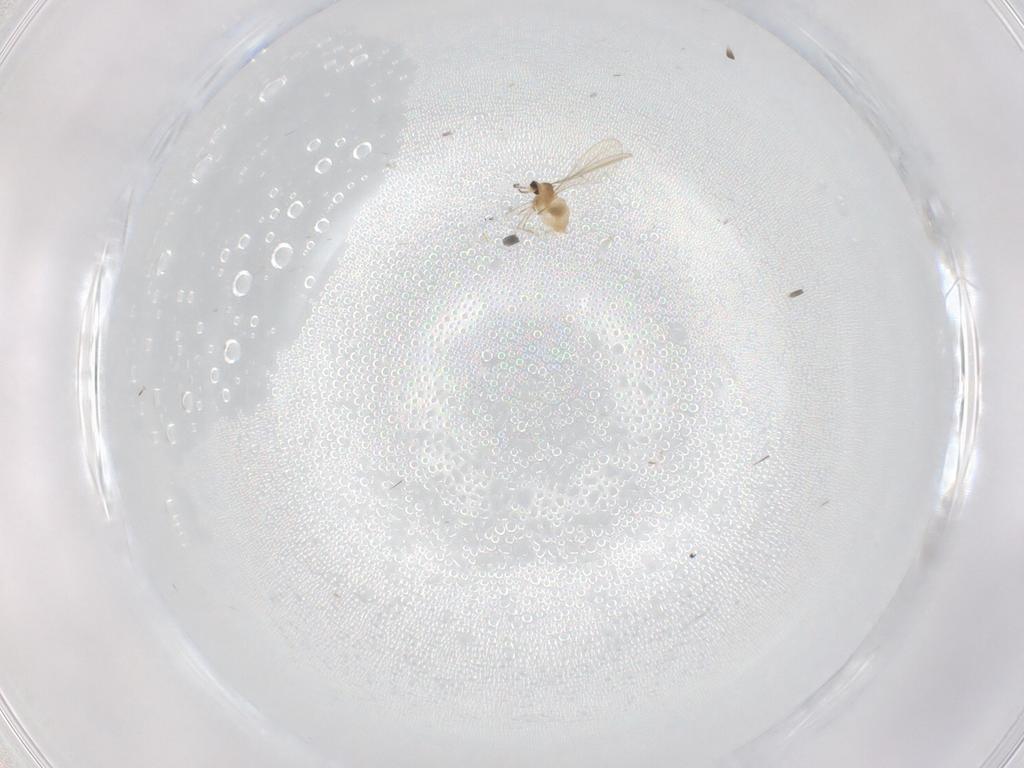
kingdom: Animalia
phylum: Arthropoda
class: Insecta
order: Diptera
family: Cecidomyiidae
